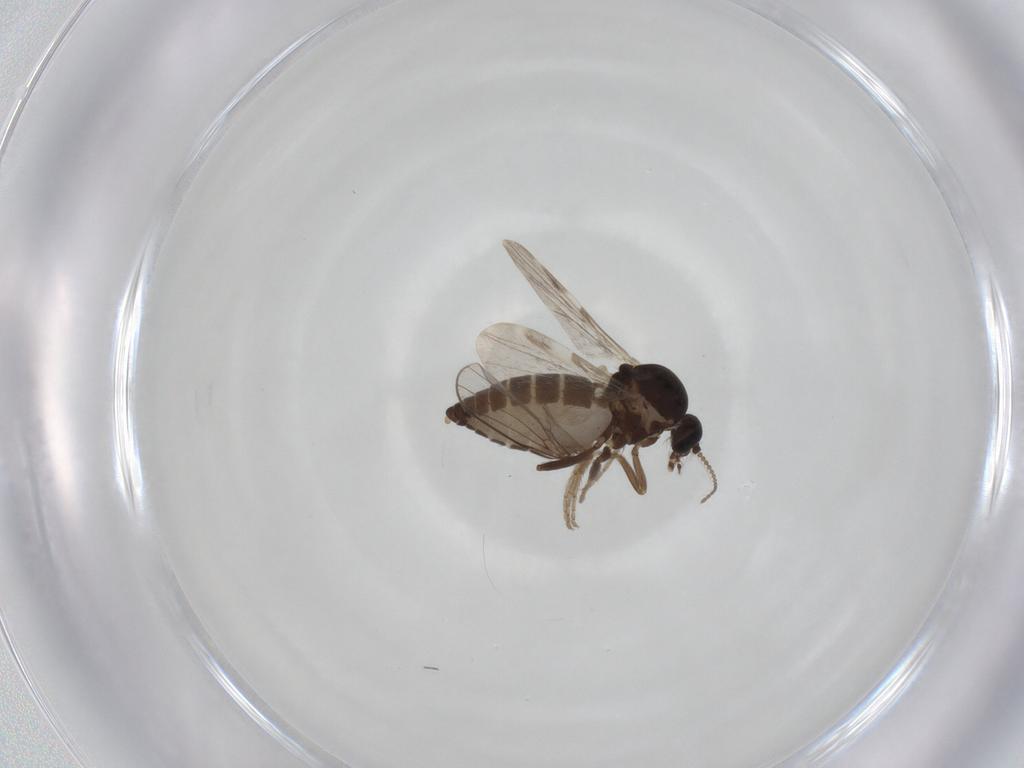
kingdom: Animalia
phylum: Arthropoda
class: Insecta
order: Diptera
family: Ceratopogonidae
